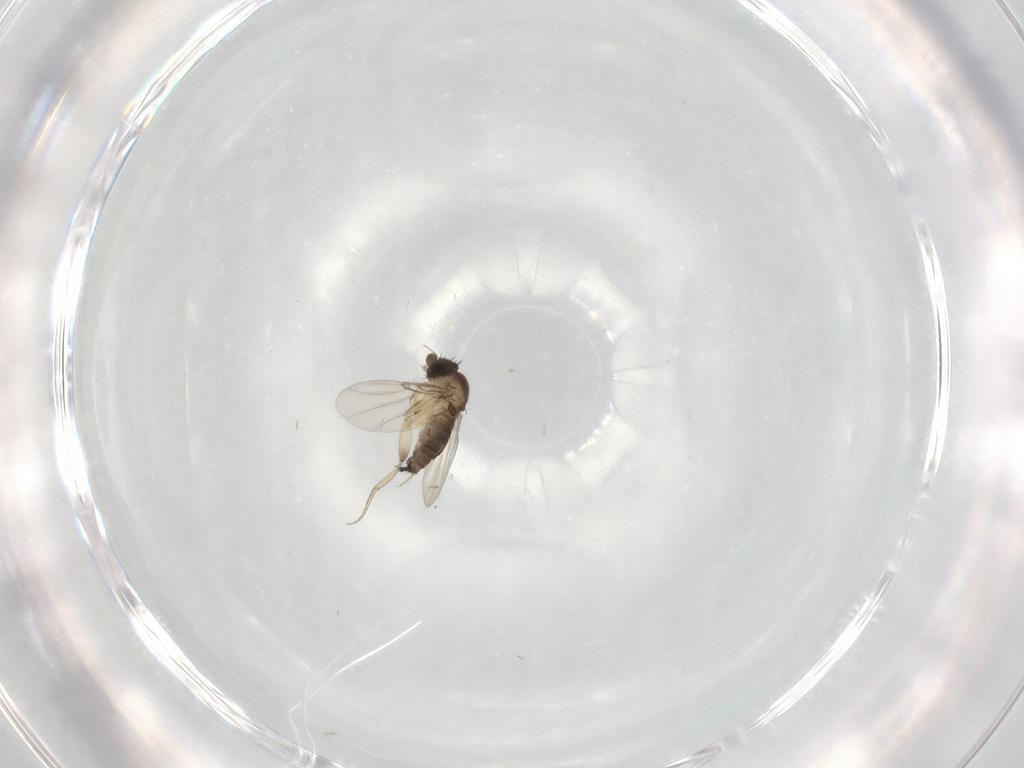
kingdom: Animalia
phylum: Arthropoda
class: Insecta
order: Diptera
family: Phoridae
